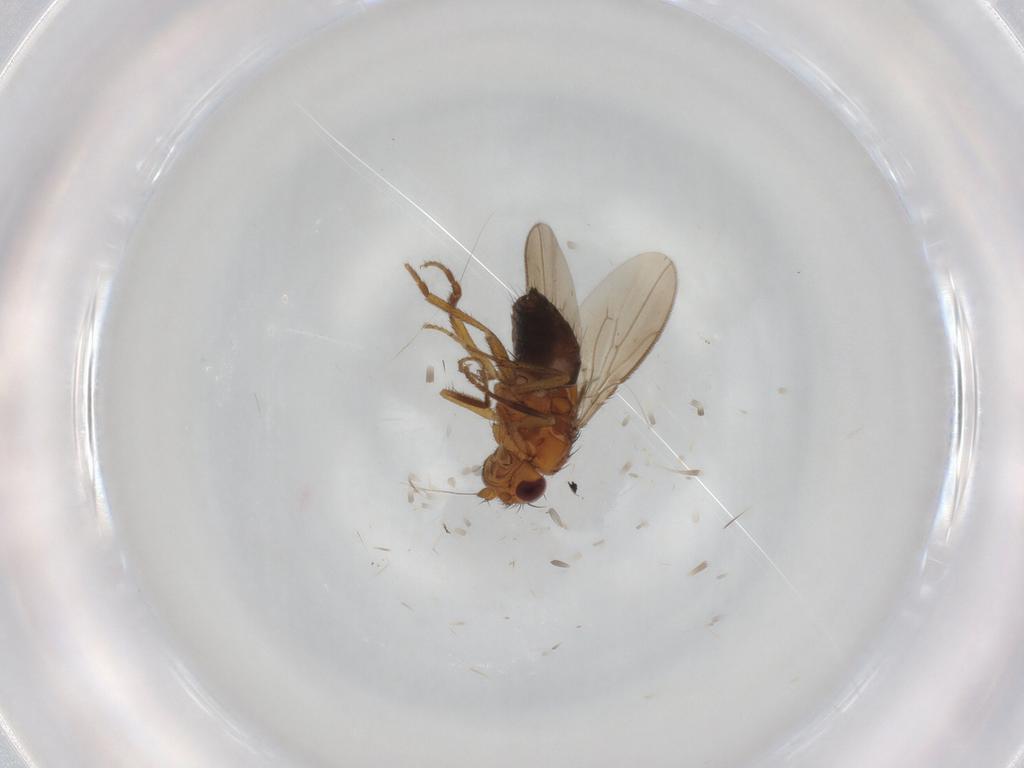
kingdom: Animalia
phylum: Arthropoda
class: Insecta
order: Diptera
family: Sphaeroceridae
